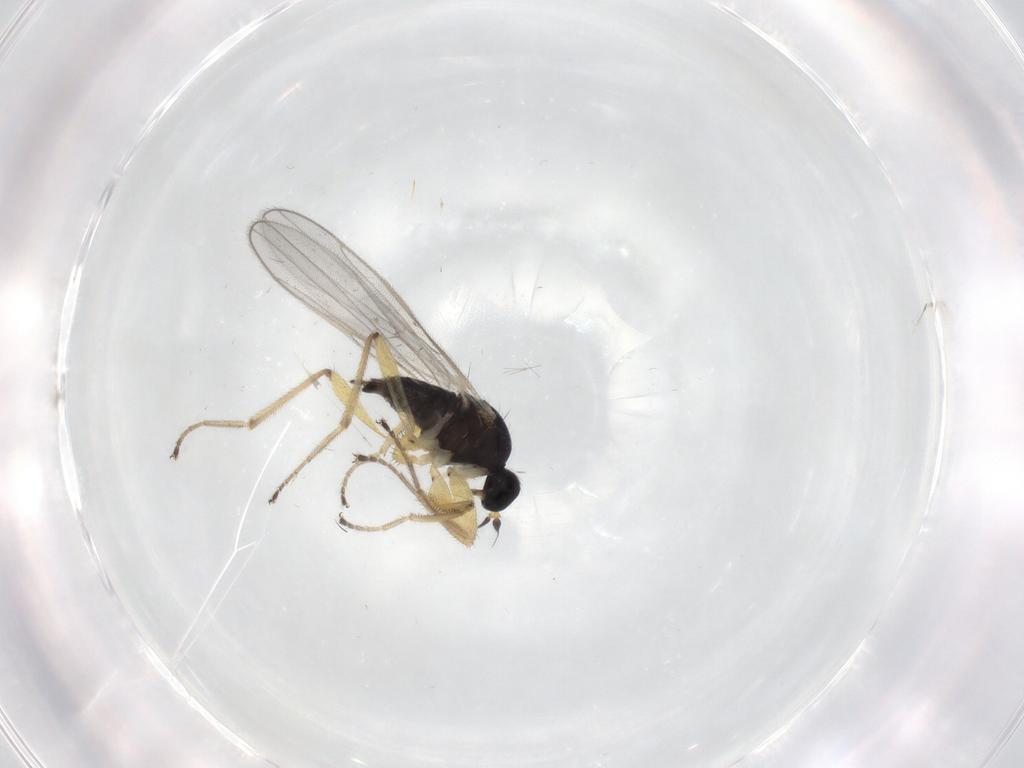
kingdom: Animalia
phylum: Arthropoda
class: Insecta
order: Diptera
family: Hybotidae
